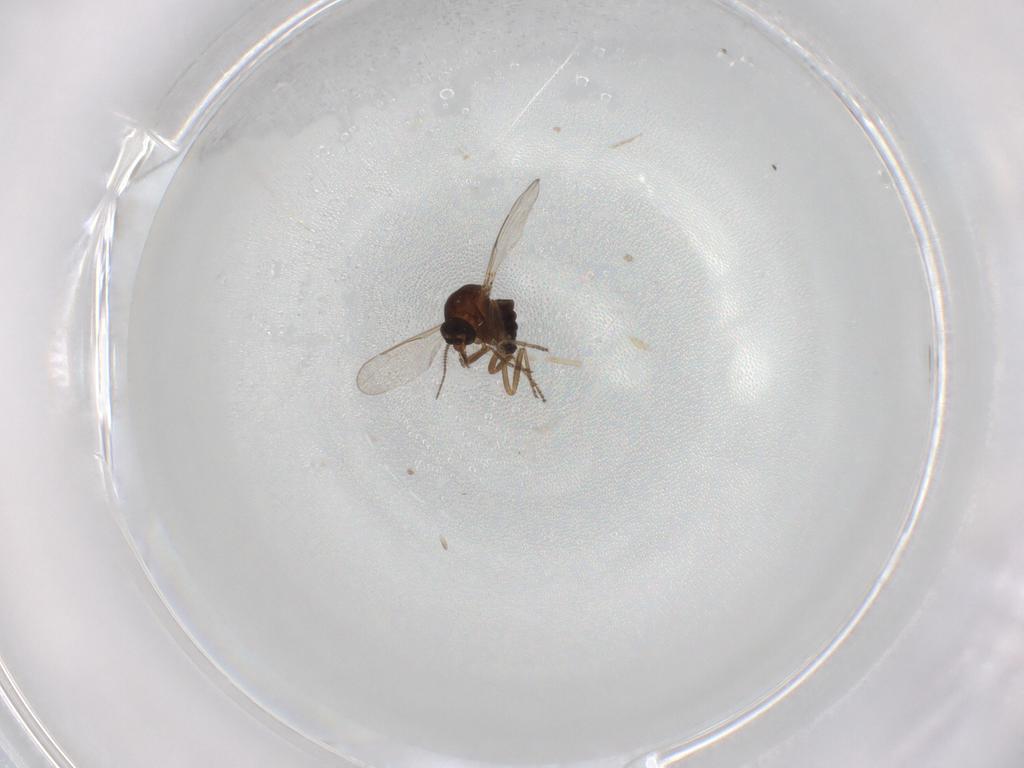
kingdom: Animalia
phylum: Arthropoda
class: Insecta
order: Diptera
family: Ceratopogonidae
